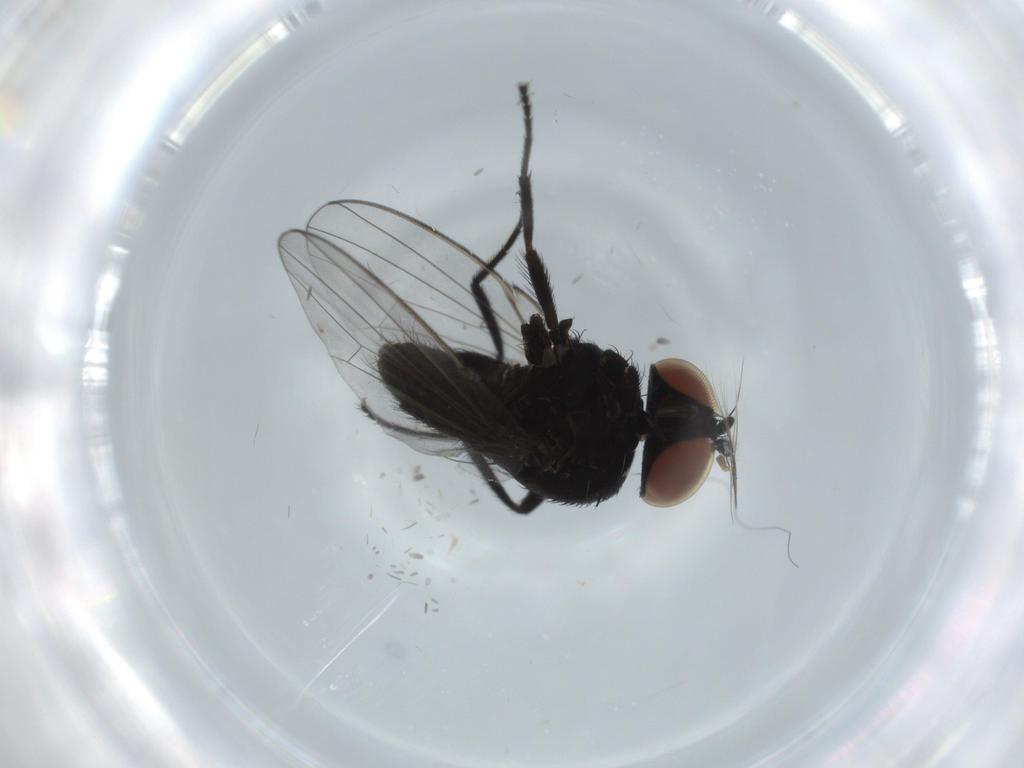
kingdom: Animalia
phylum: Arthropoda
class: Insecta
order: Diptera
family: Milichiidae
